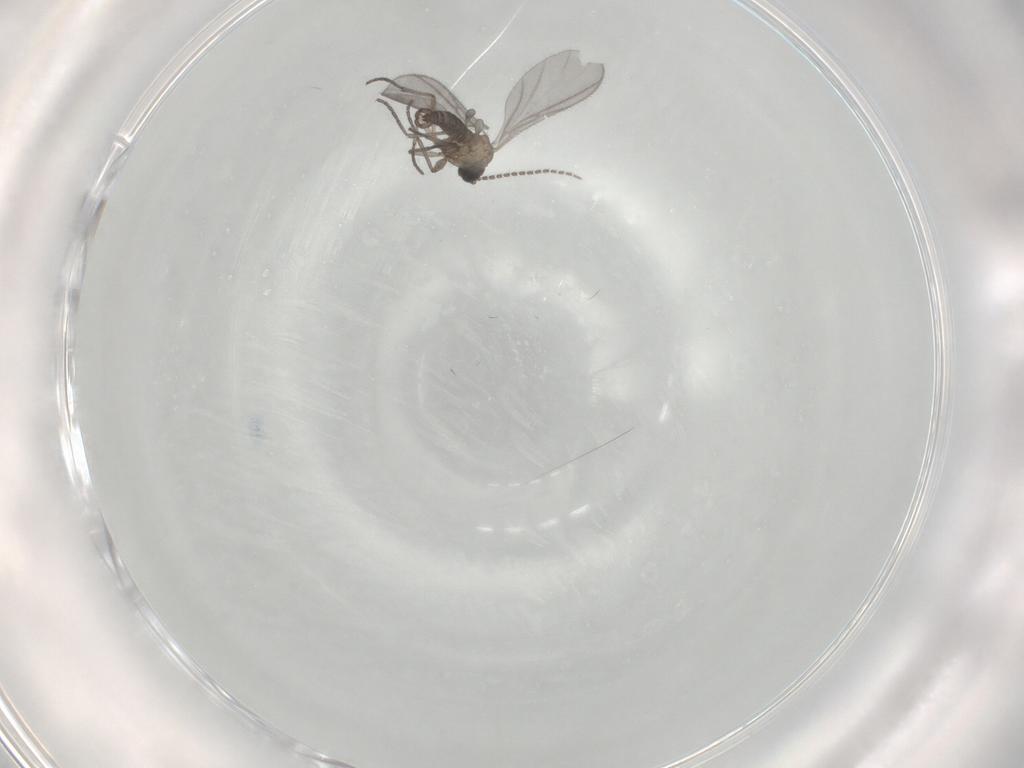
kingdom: Animalia
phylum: Arthropoda
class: Insecta
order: Diptera
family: Sciaridae
